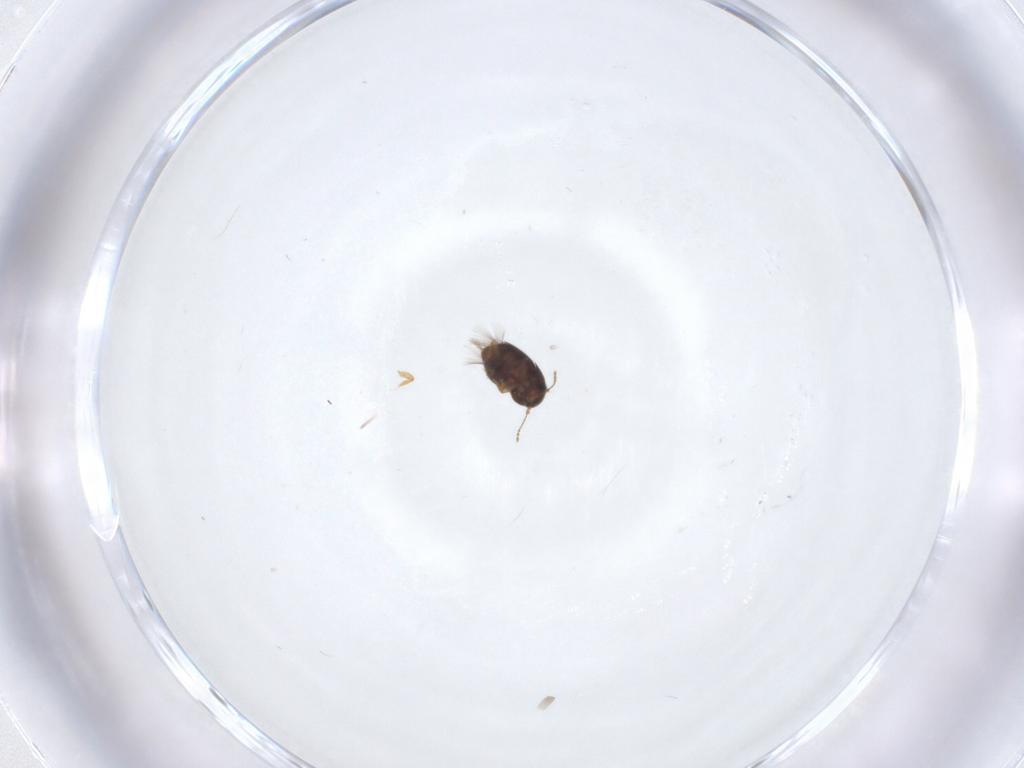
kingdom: Animalia
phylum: Arthropoda
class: Insecta
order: Coleoptera
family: Ptiliidae
